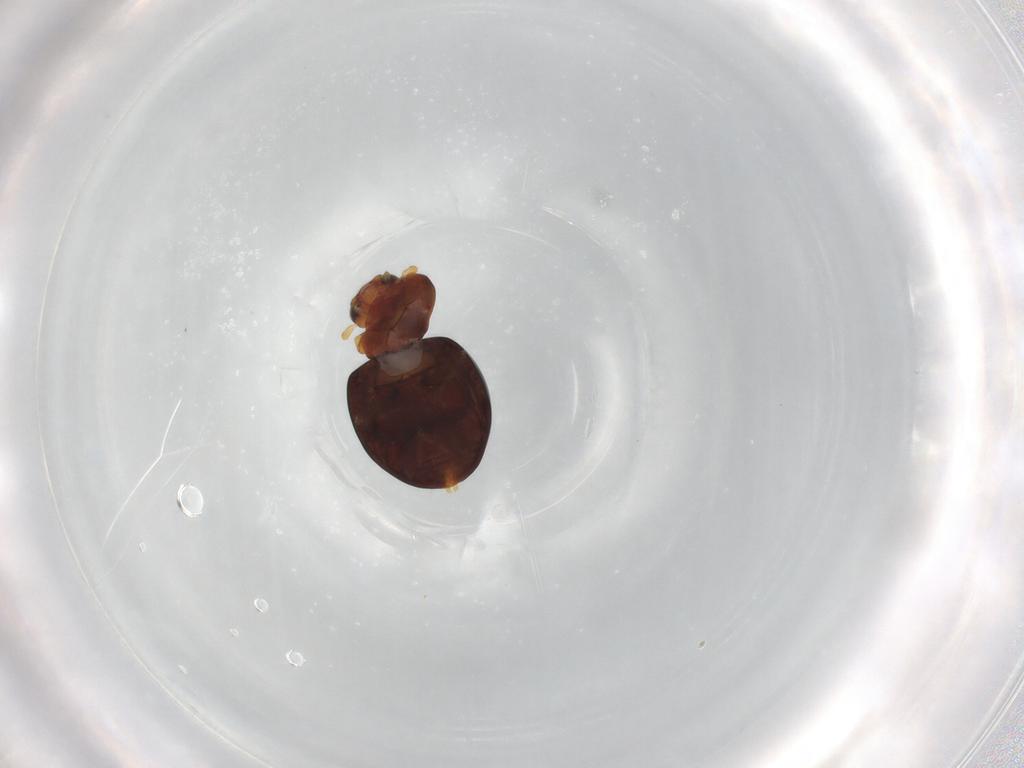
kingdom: Animalia
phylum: Arthropoda
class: Insecta
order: Coleoptera
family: Coccinellidae
